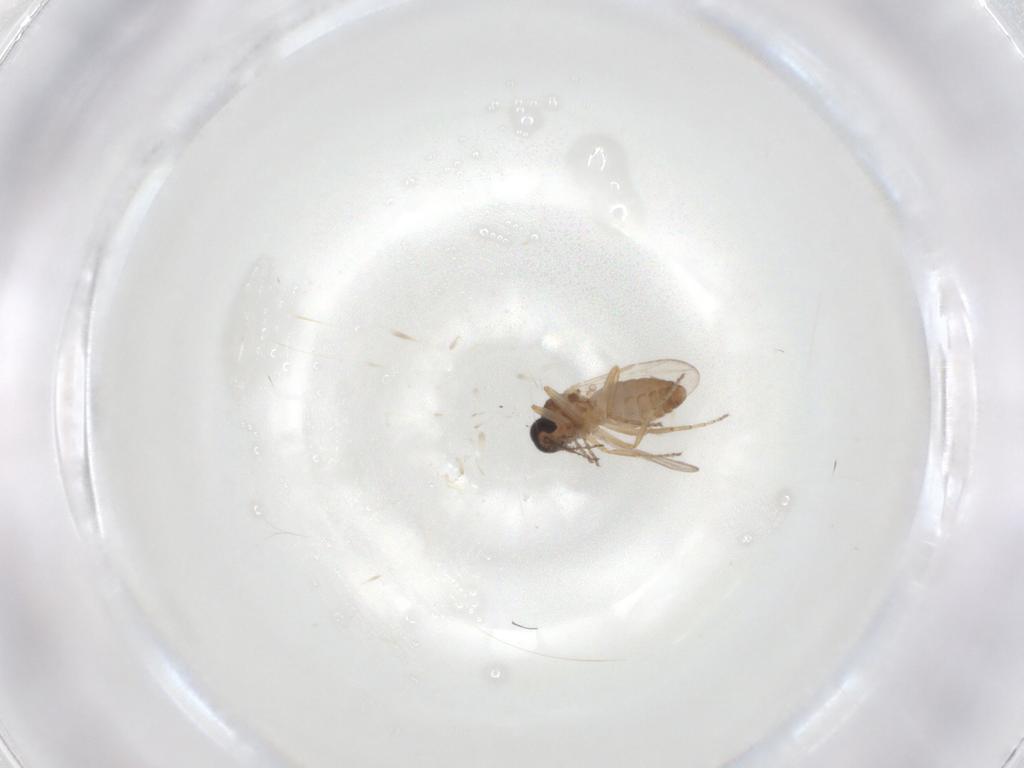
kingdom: Animalia
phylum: Arthropoda
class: Insecta
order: Diptera
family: Ceratopogonidae
